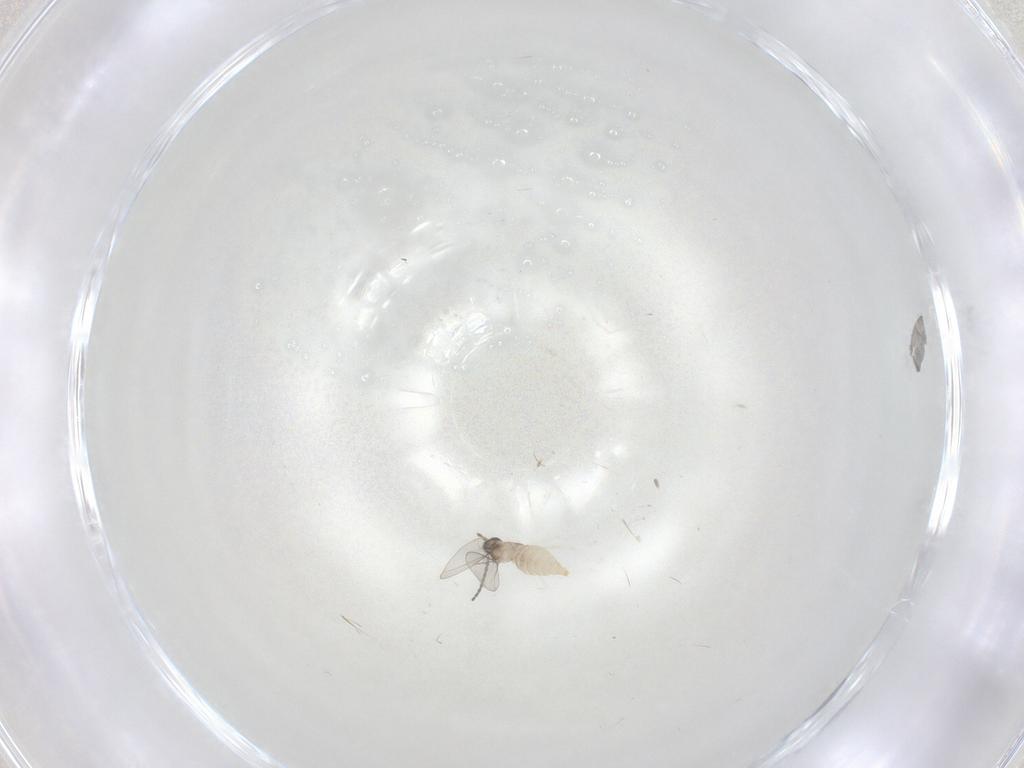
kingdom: Animalia
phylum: Arthropoda
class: Insecta
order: Diptera
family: Cecidomyiidae
